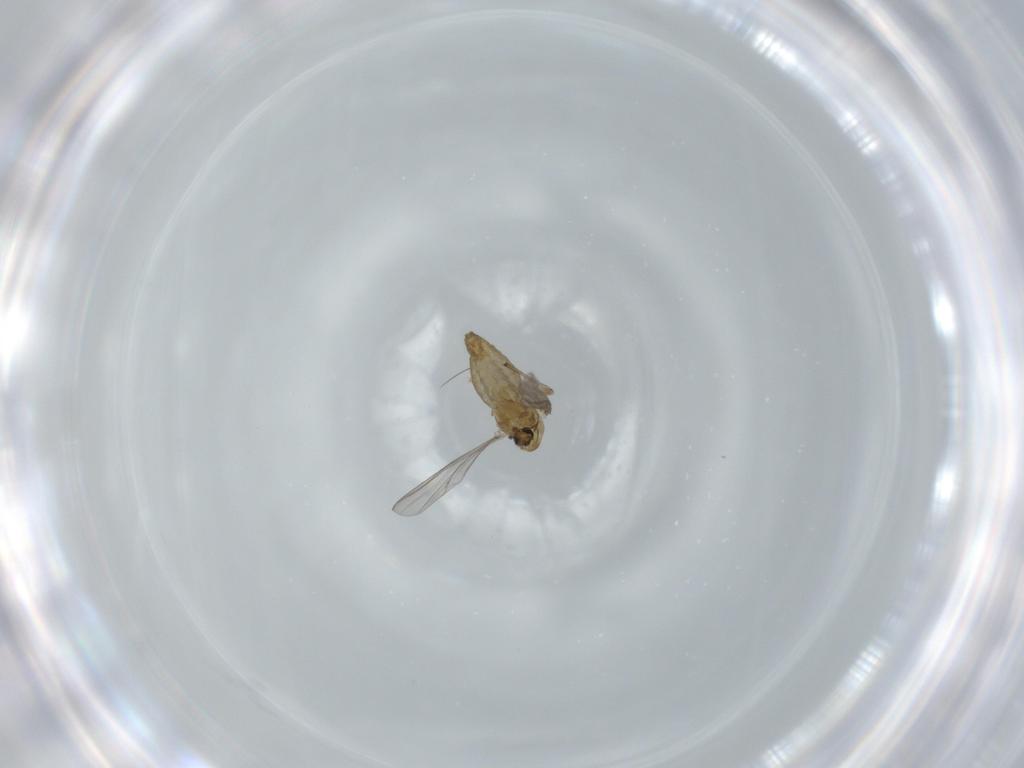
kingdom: Animalia
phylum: Arthropoda
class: Insecta
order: Diptera
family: Chironomidae
